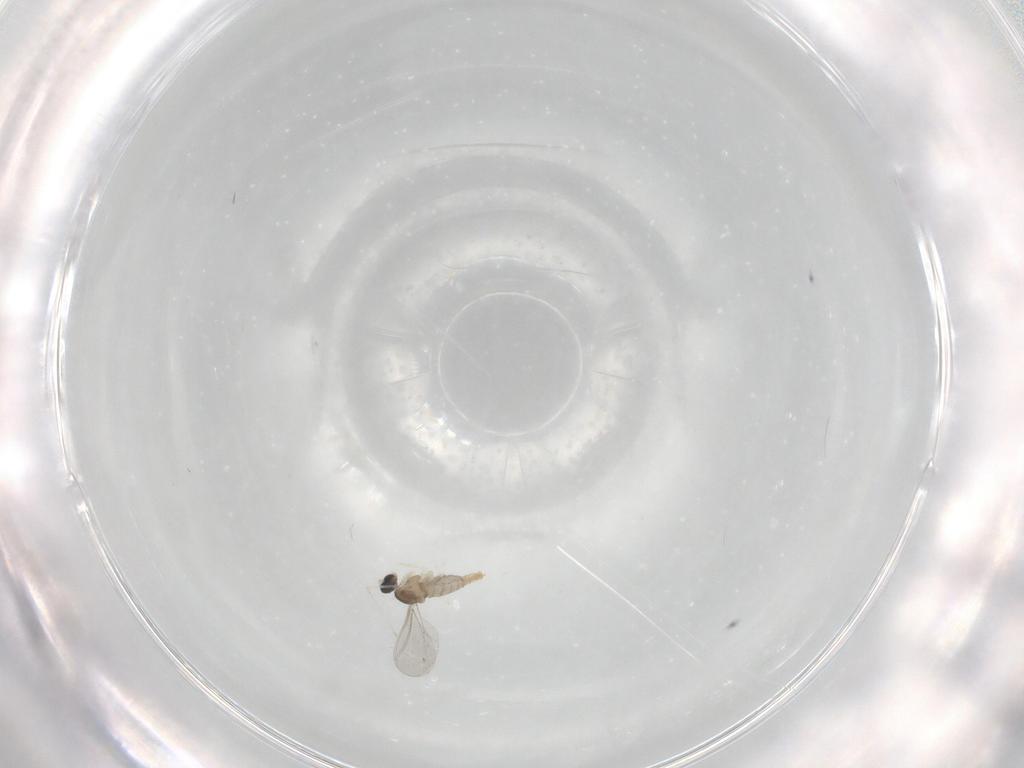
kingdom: Animalia
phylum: Arthropoda
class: Insecta
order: Diptera
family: Cecidomyiidae
